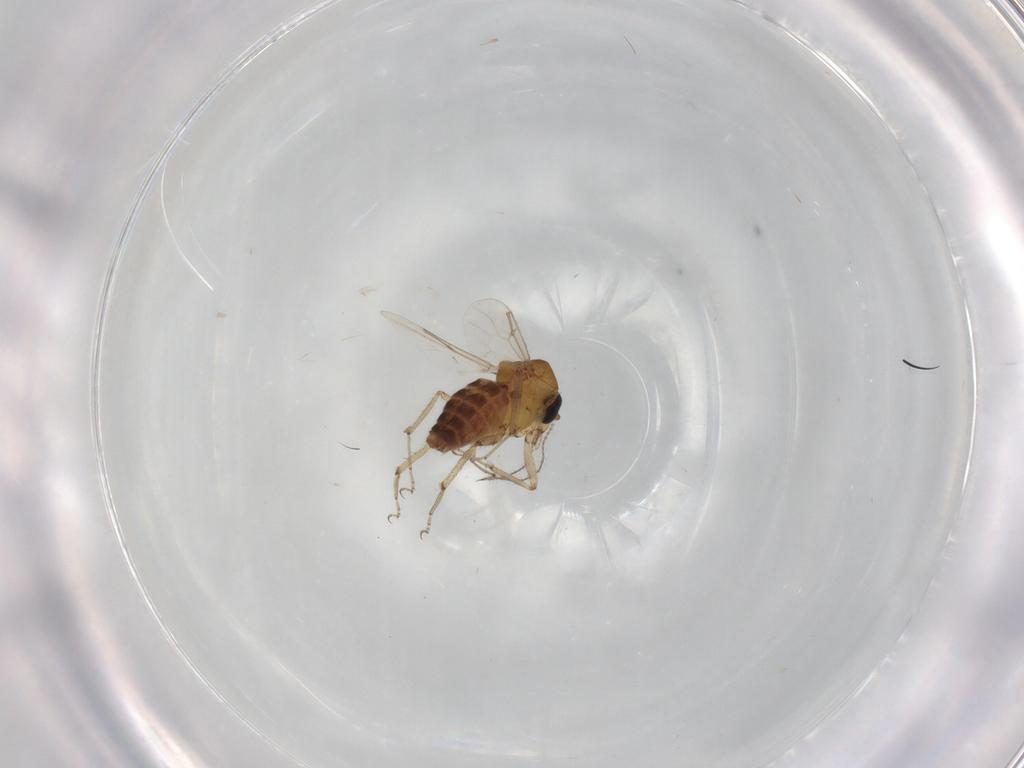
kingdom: Animalia
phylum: Arthropoda
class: Insecta
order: Diptera
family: Ceratopogonidae
